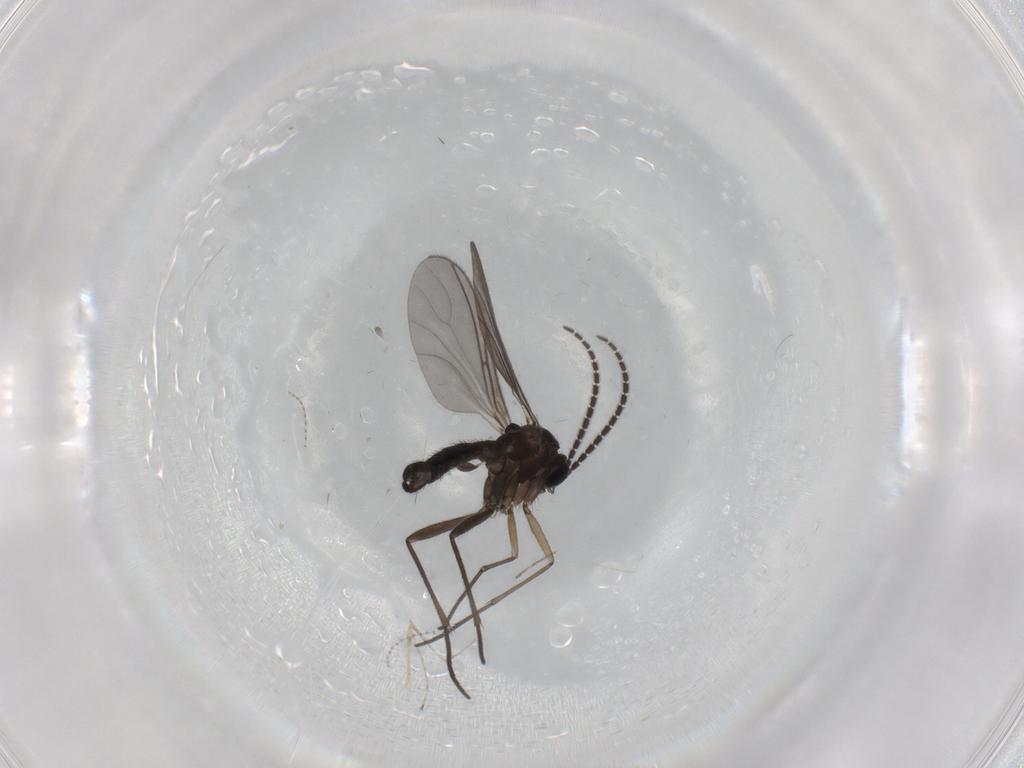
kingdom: Animalia
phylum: Arthropoda
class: Insecta
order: Diptera
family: Sciaridae
